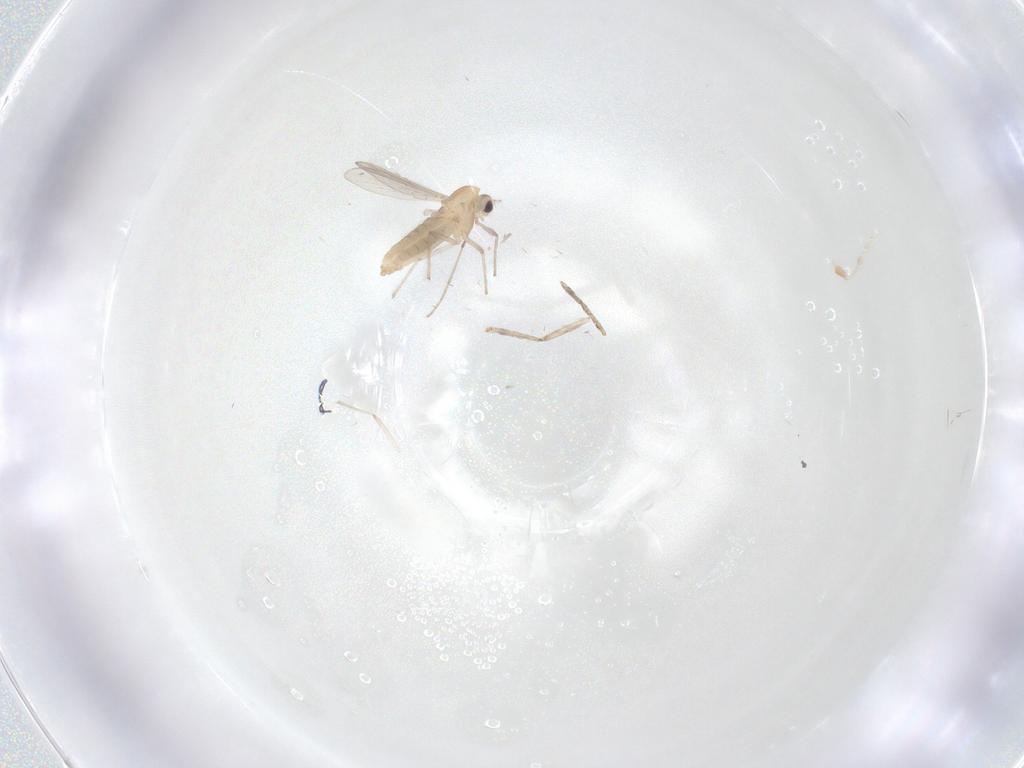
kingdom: Animalia
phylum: Arthropoda
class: Insecta
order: Diptera
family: Chironomidae
